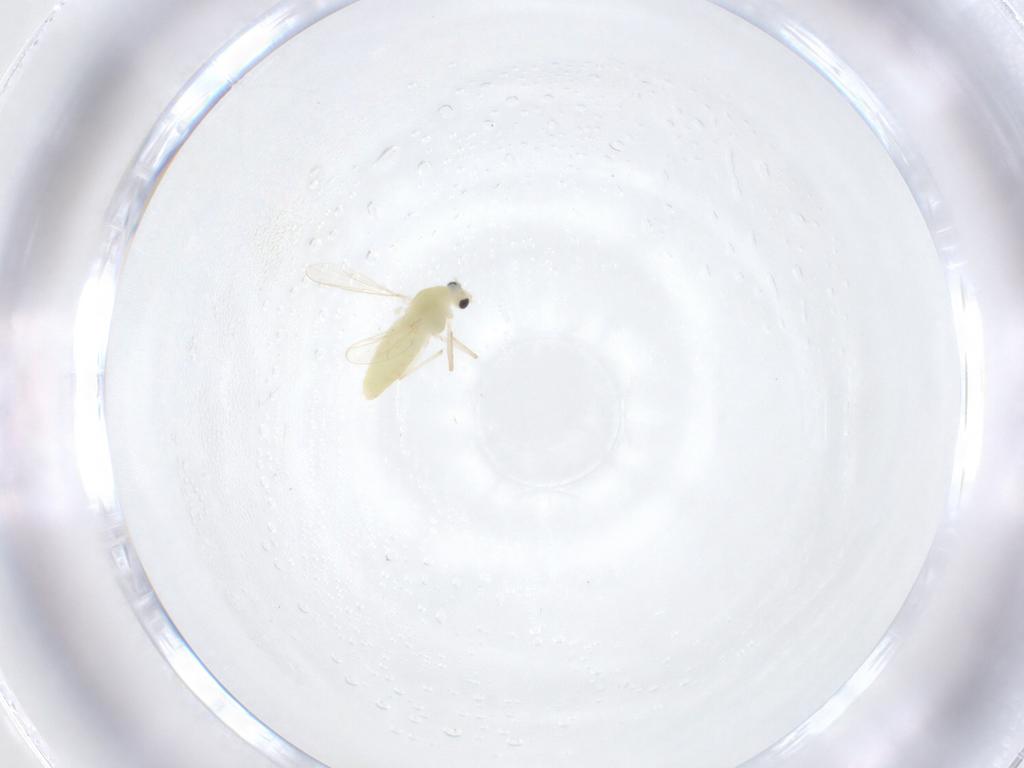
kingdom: Animalia
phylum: Arthropoda
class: Insecta
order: Diptera
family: Chironomidae
